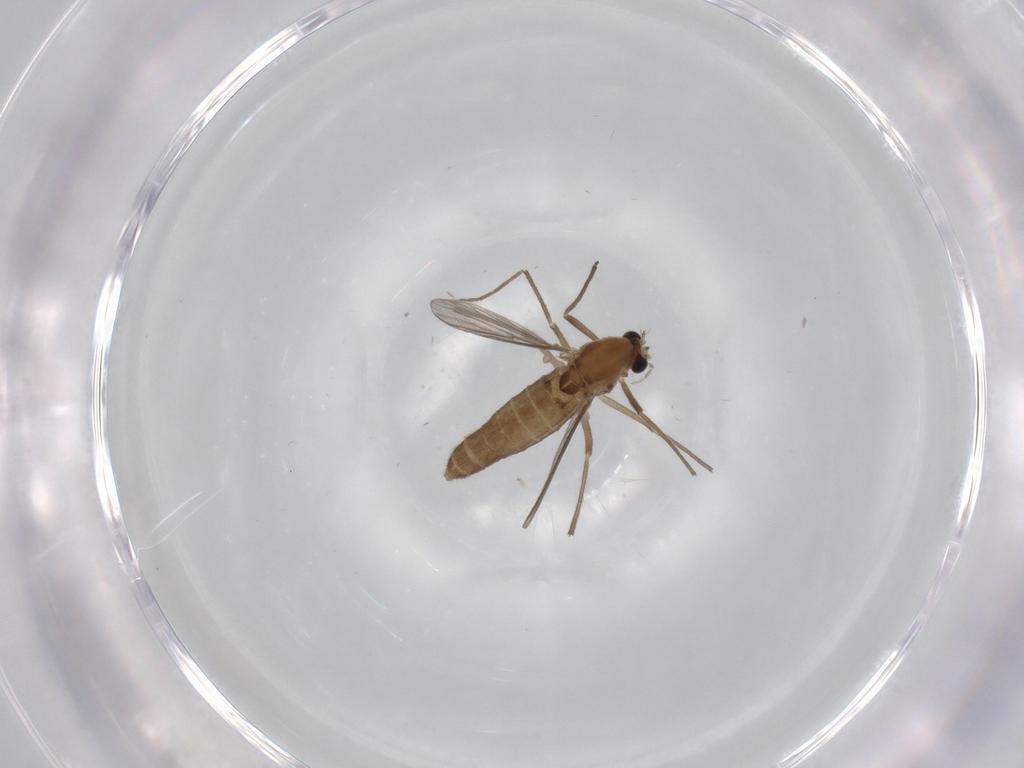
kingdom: Animalia
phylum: Arthropoda
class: Insecta
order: Diptera
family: Chironomidae
